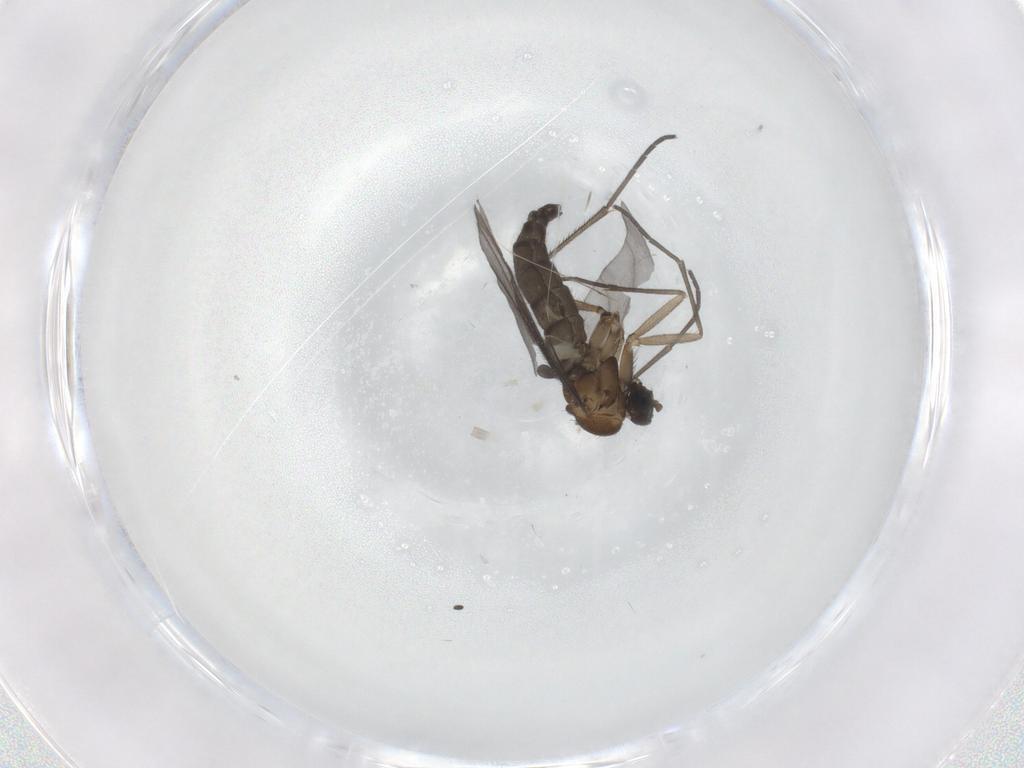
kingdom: Animalia
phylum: Arthropoda
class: Insecta
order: Diptera
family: Sciaridae
